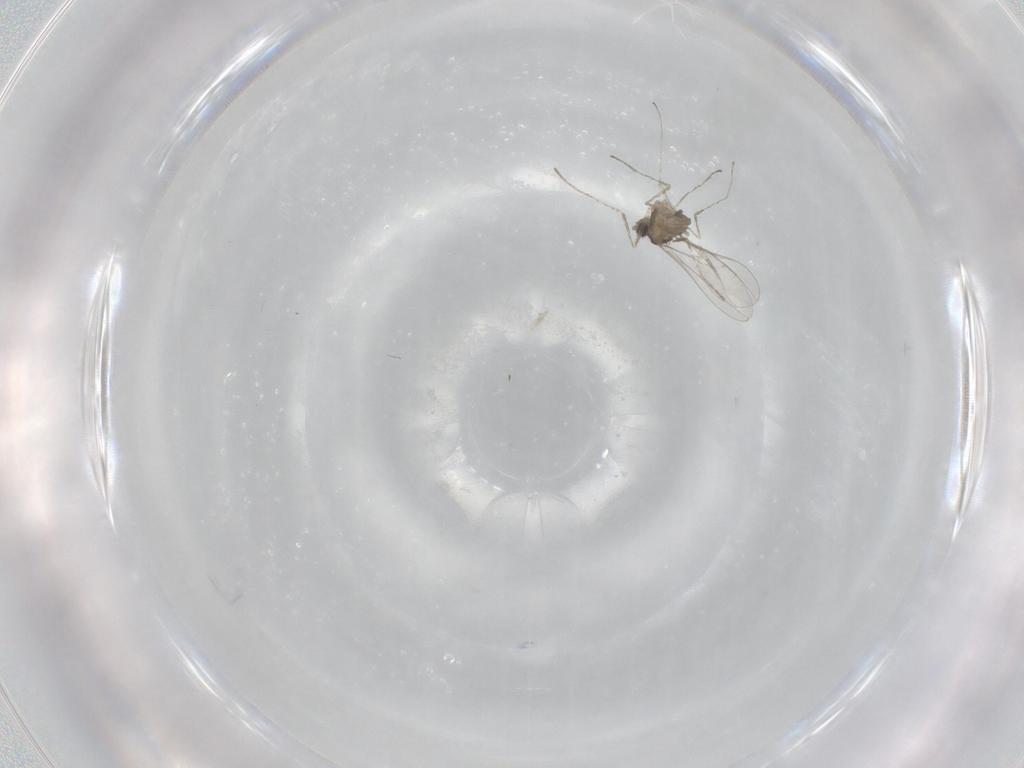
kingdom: Animalia
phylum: Arthropoda
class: Insecta
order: Diptera
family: Cecidomyiidae
